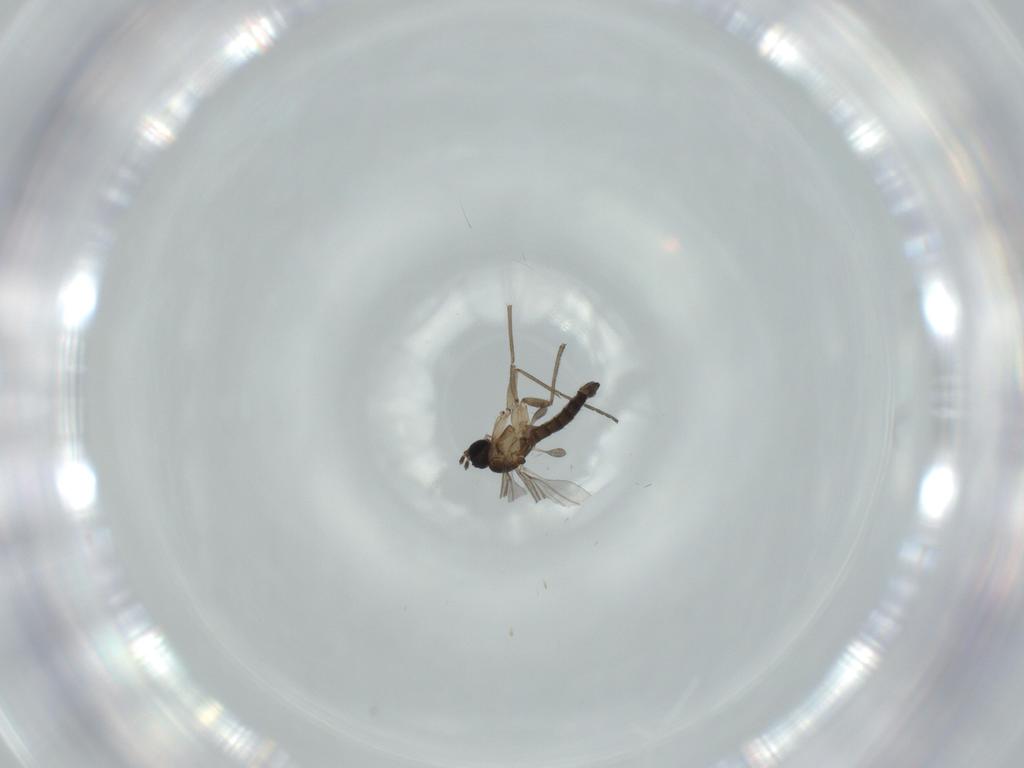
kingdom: Animalia
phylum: Arthropoda
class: Insecta
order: Diptera
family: Sciaridae
